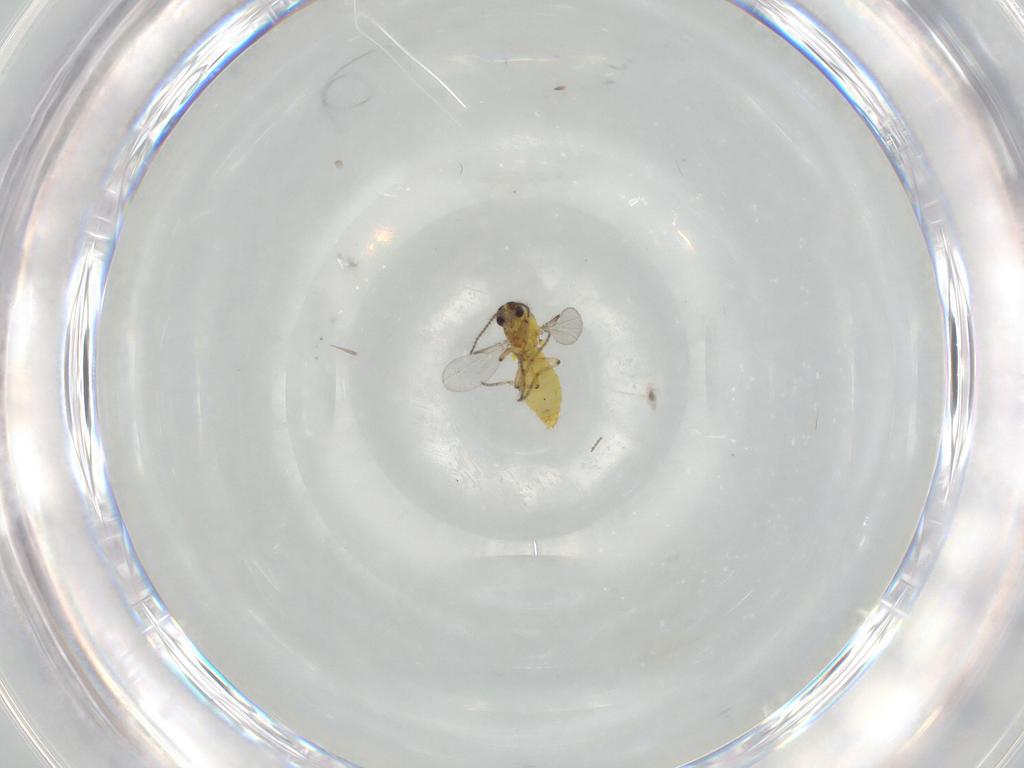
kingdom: Animalia
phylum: Arthropoda
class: Insecta
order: Diptera
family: Ceratopogonidae
